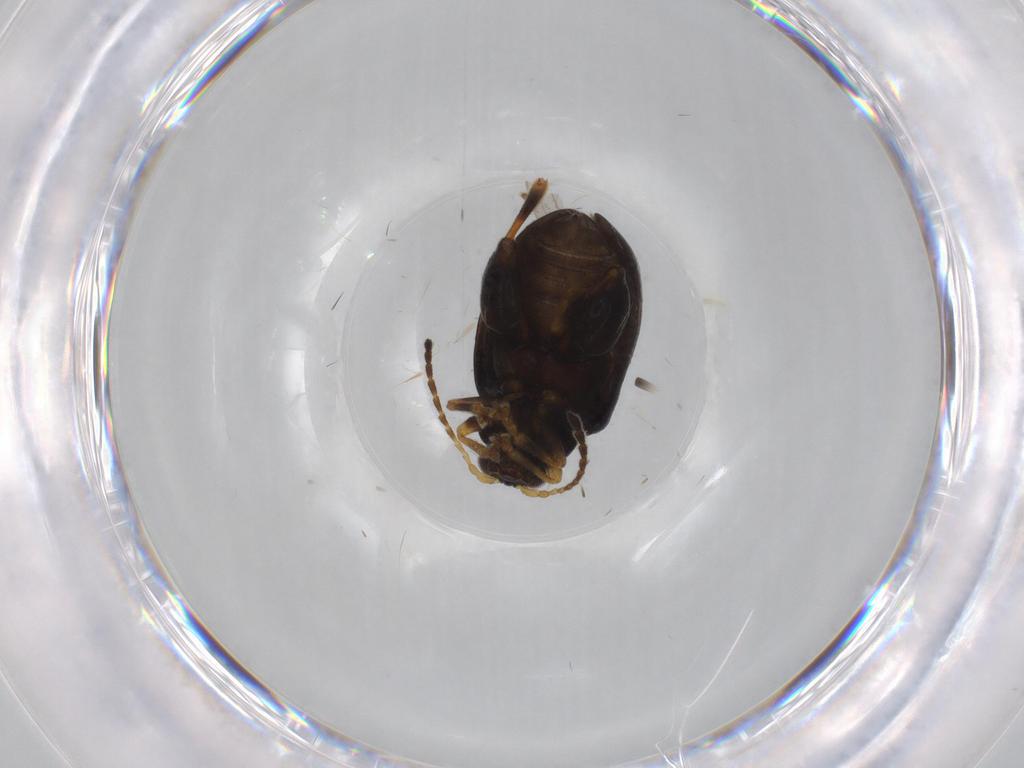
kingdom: Animalia
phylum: Arthropoda
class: Insecta
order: Coleoptera
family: Chrysomelidae
